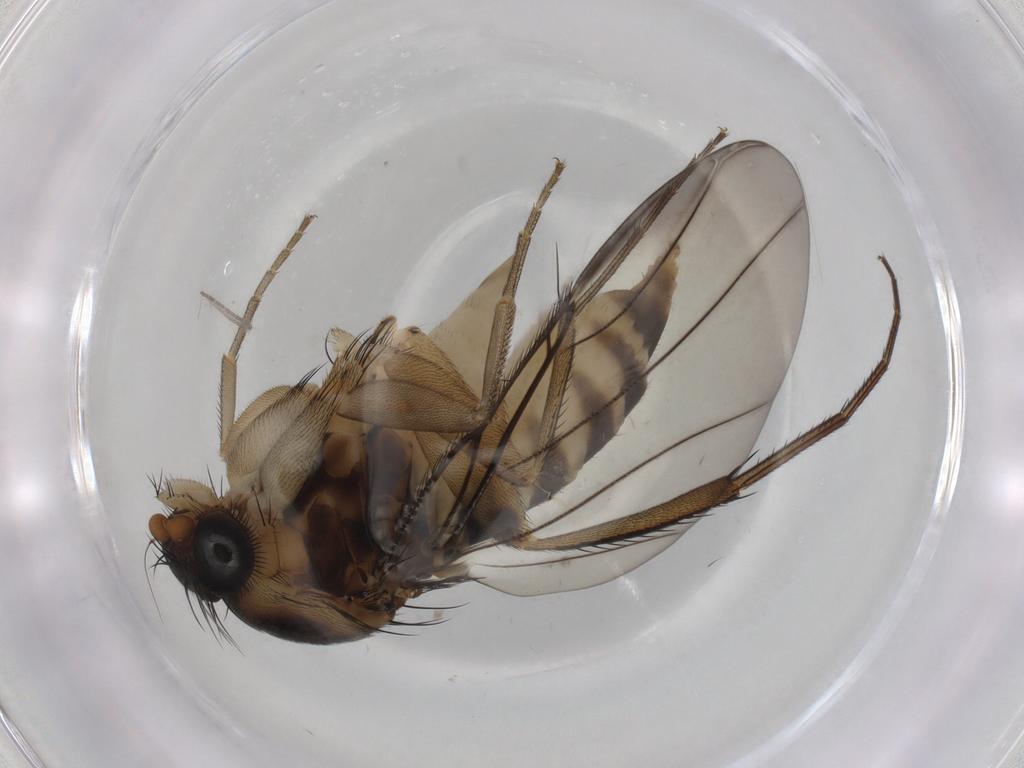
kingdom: Animalia
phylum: Arthropoda
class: Insecta
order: Diptera
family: Phoridae
